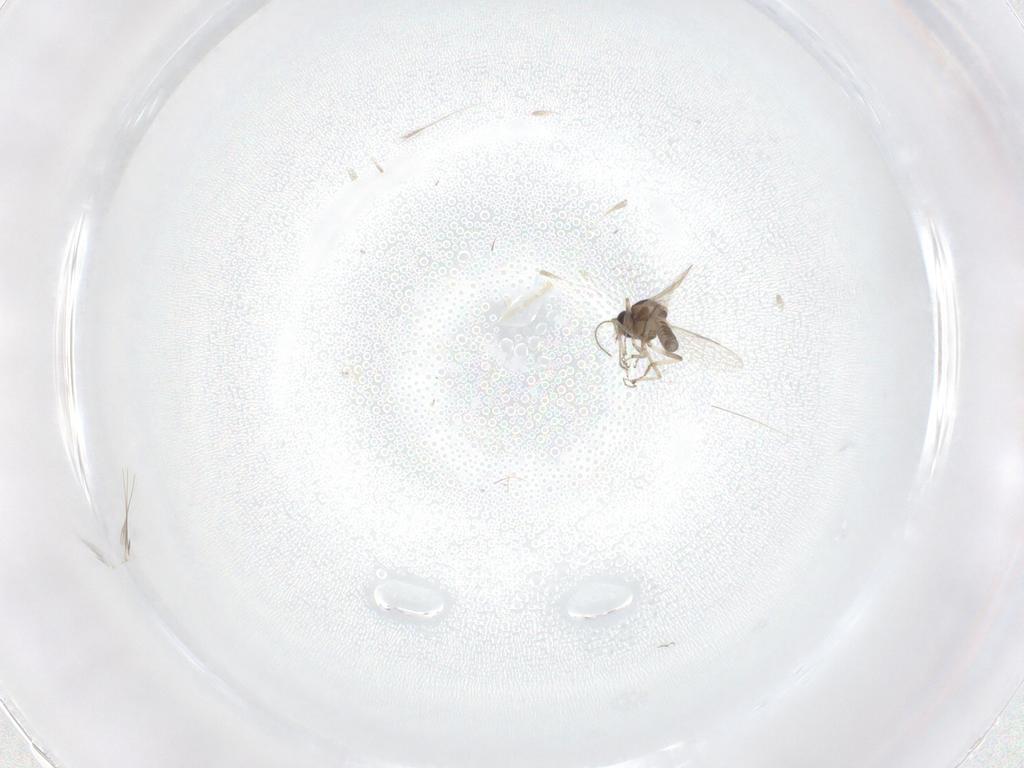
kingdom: Animalia
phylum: Arthropoda
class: Insecta
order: Diptera
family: Ceratopogonidae
